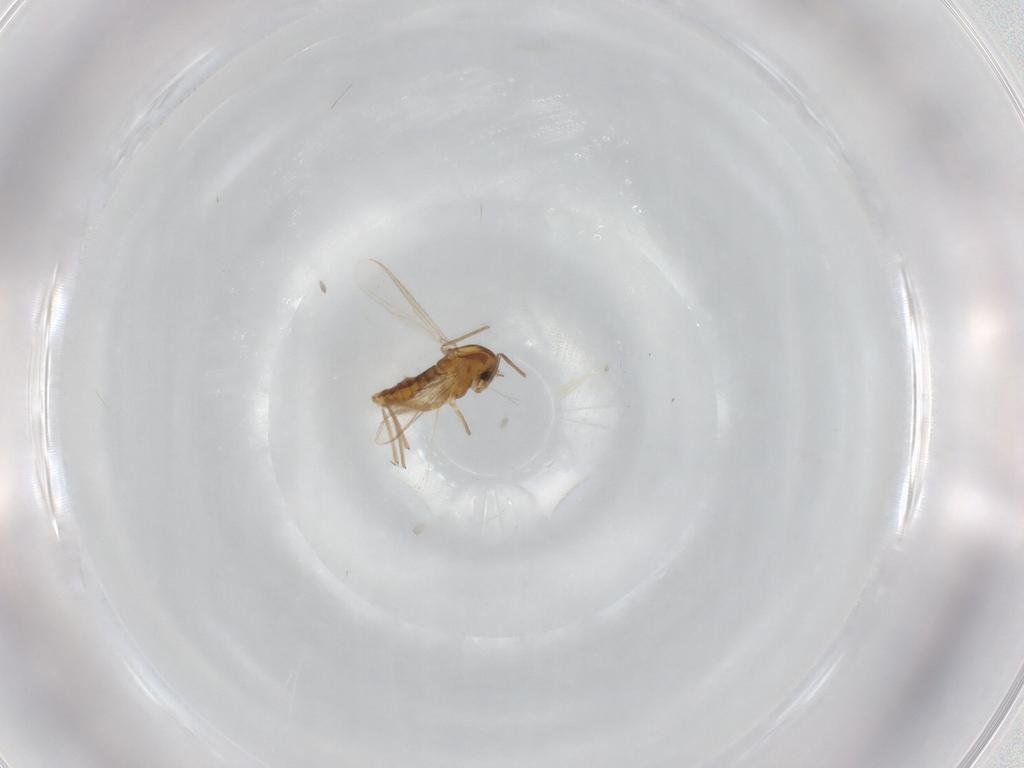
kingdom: Animalia
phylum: Arthropoda
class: Insecta
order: Diptera
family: Chironomidae
